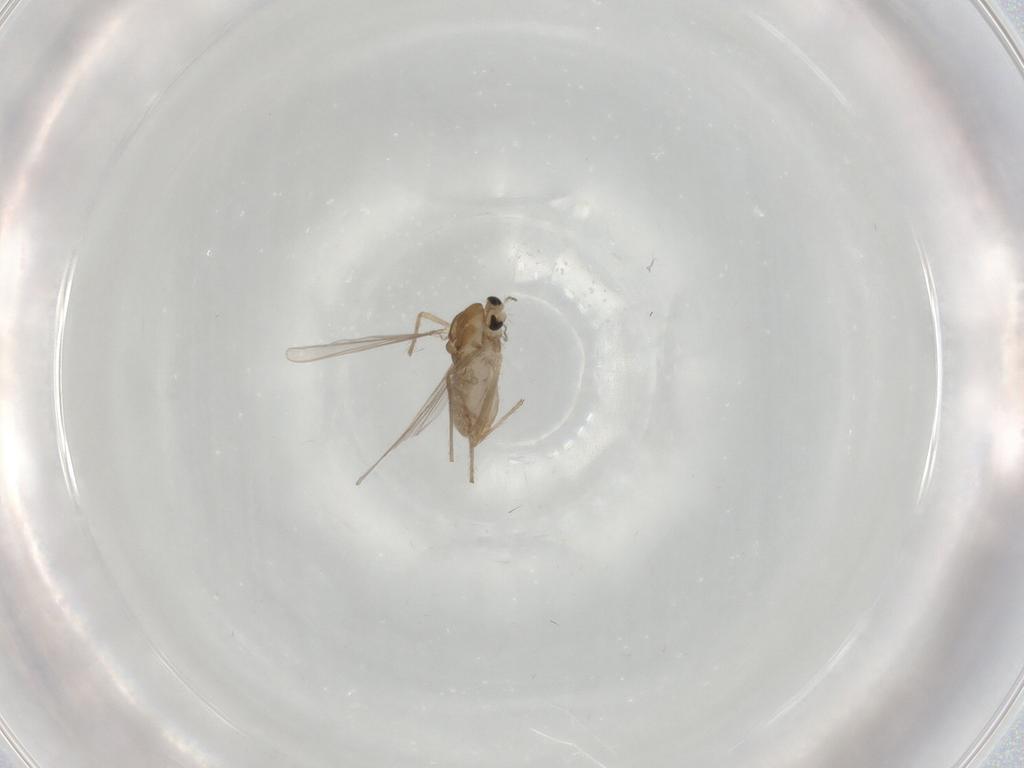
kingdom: Animalia
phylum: Arthropoda
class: Insecta
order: Diptera
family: Chironomidae
